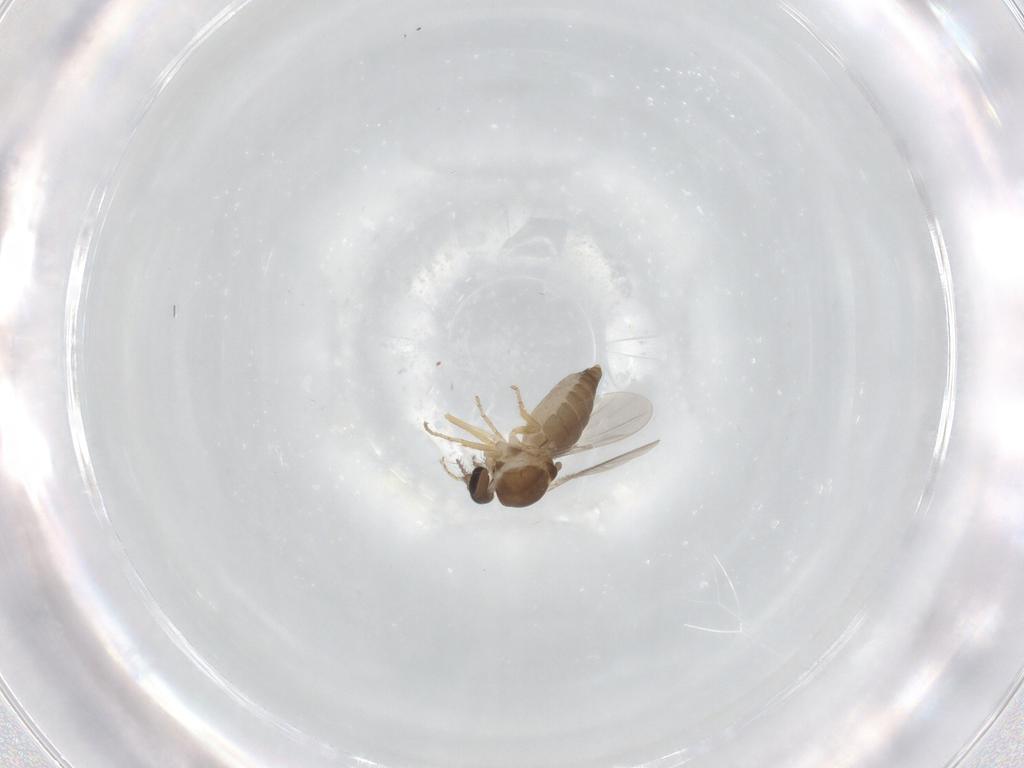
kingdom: Animalia
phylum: Arthropoda
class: Insecta
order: Diptera
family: Ceratopogonidae
